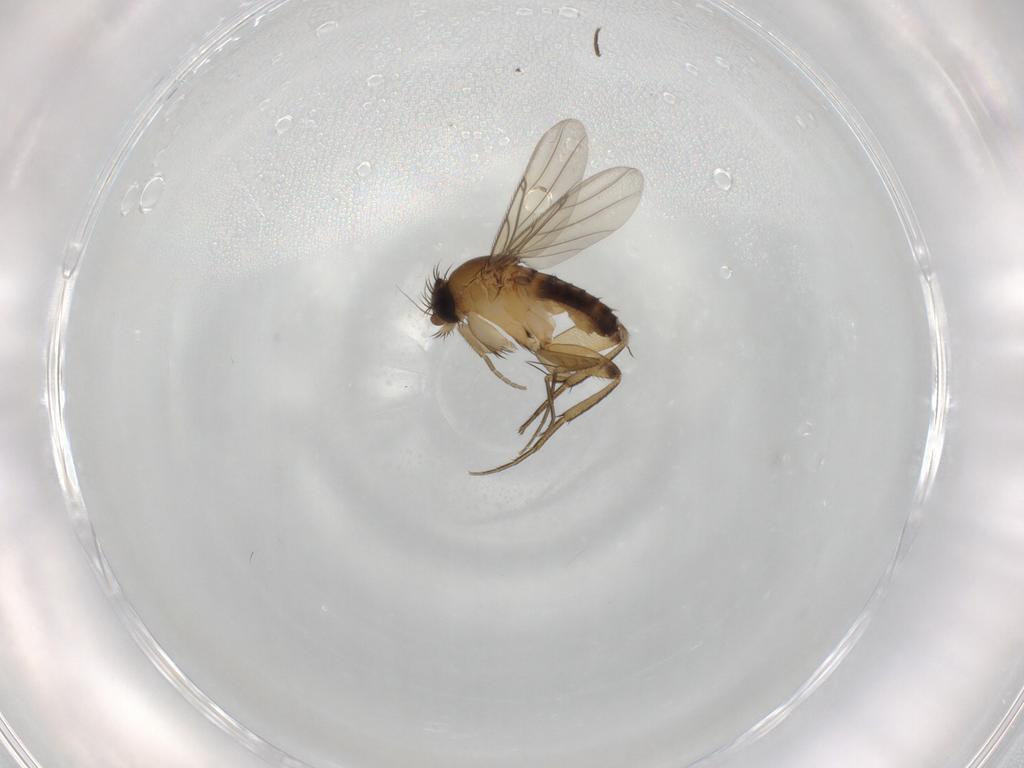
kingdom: Animalia
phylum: Arthropoda
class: Insecta
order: Diptera
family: Phoridae
